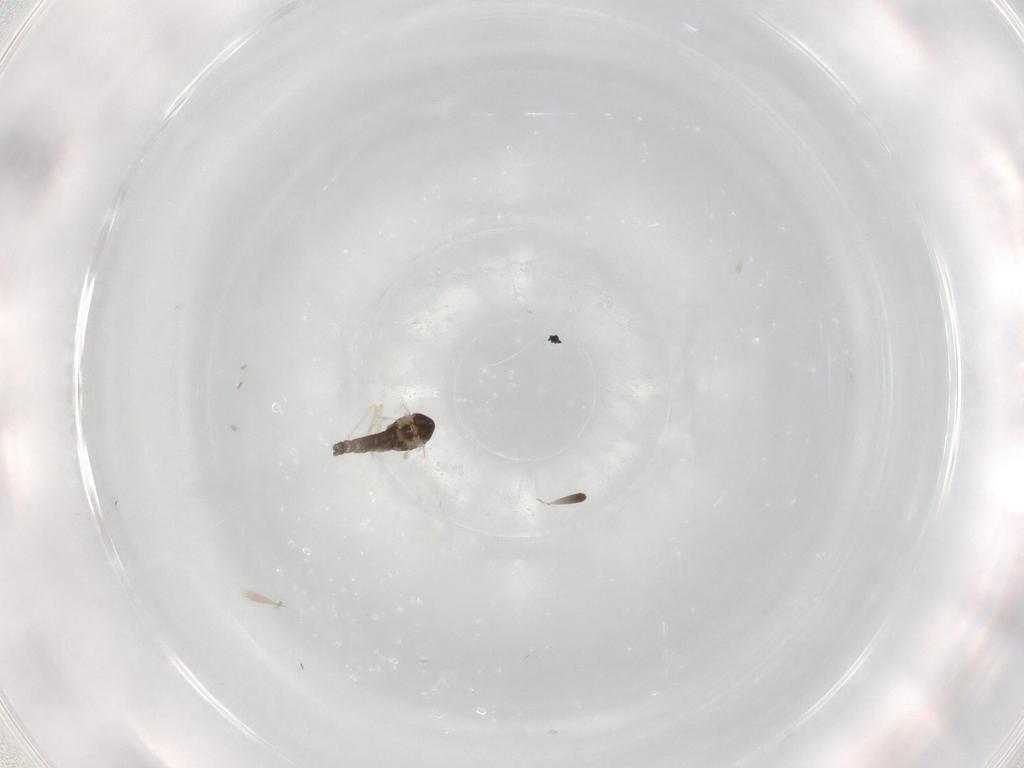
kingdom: Animalia
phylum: Arthropoda
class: Insecta
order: Diptera
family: Chironomidae
